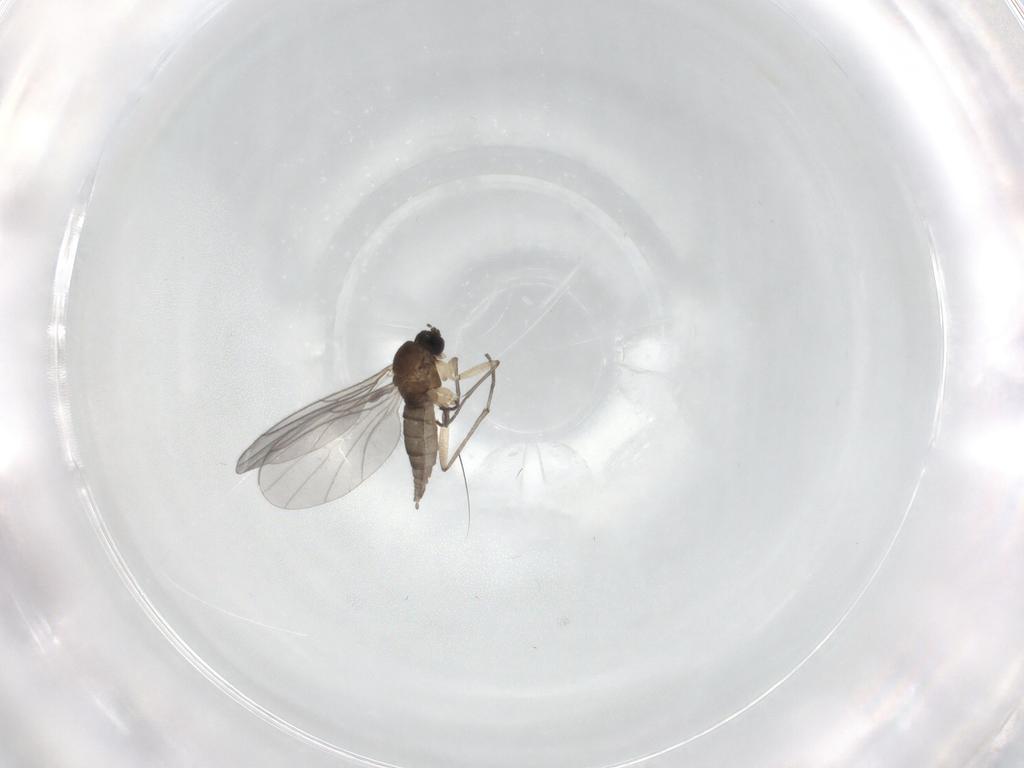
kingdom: Animalia
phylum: Arthropoda
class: Insecta
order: Diptera
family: Sciaridae
